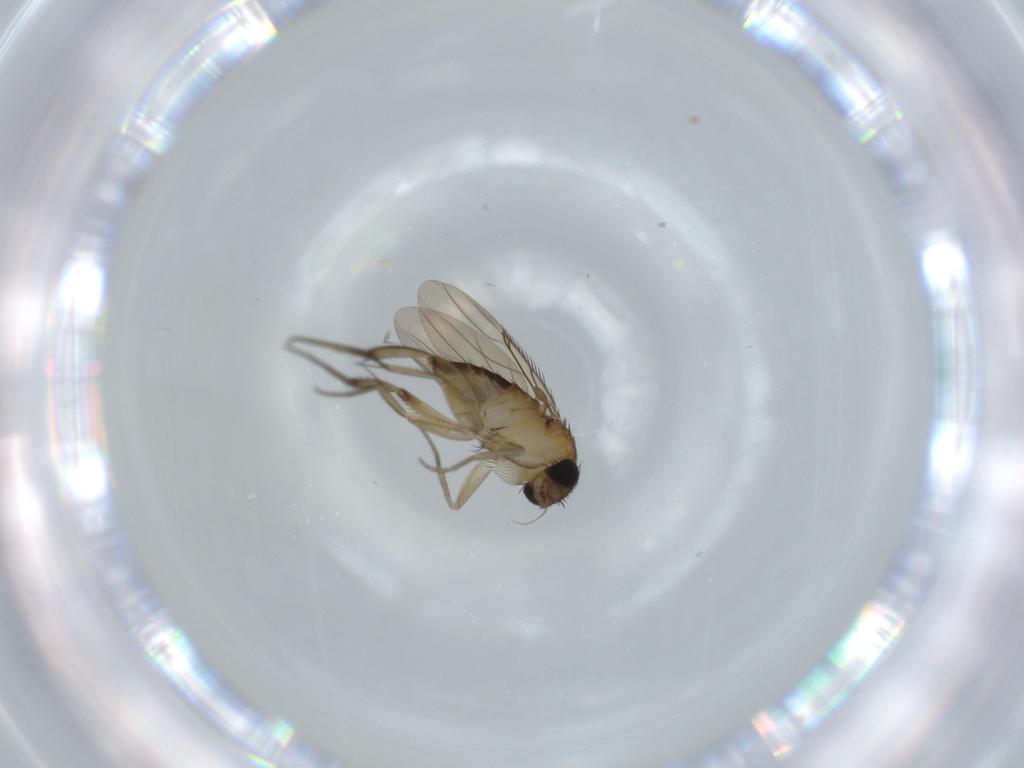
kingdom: Animalia
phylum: Arthropoda
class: Insecta
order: Diptera
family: Phoridae
